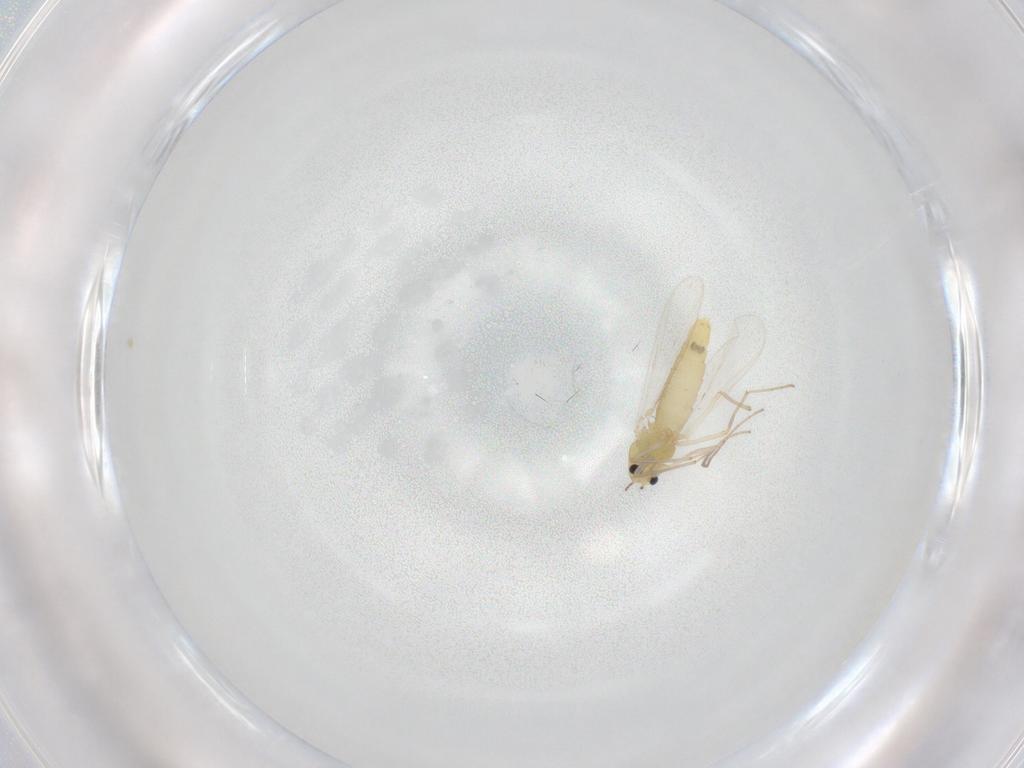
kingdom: Animalia
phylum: Arthropoda
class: Insecta
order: Diptera
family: Chironomidae
